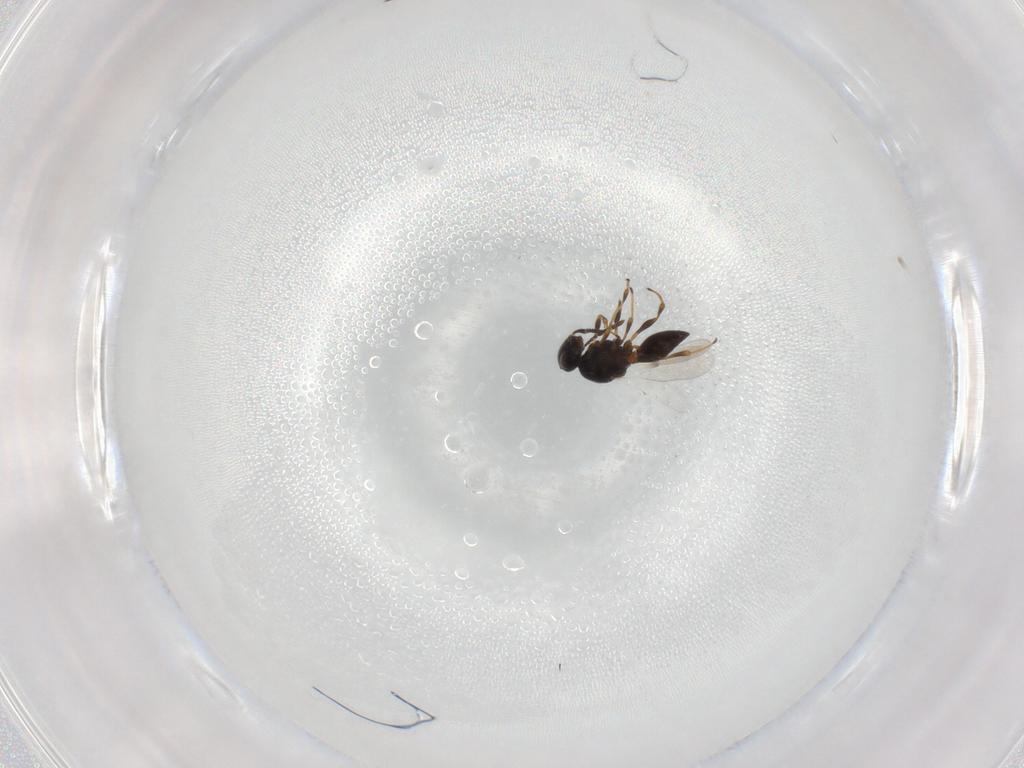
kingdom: Animalia
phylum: Arthropoda
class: Insecta
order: Hymenoptera
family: Platygastridae
